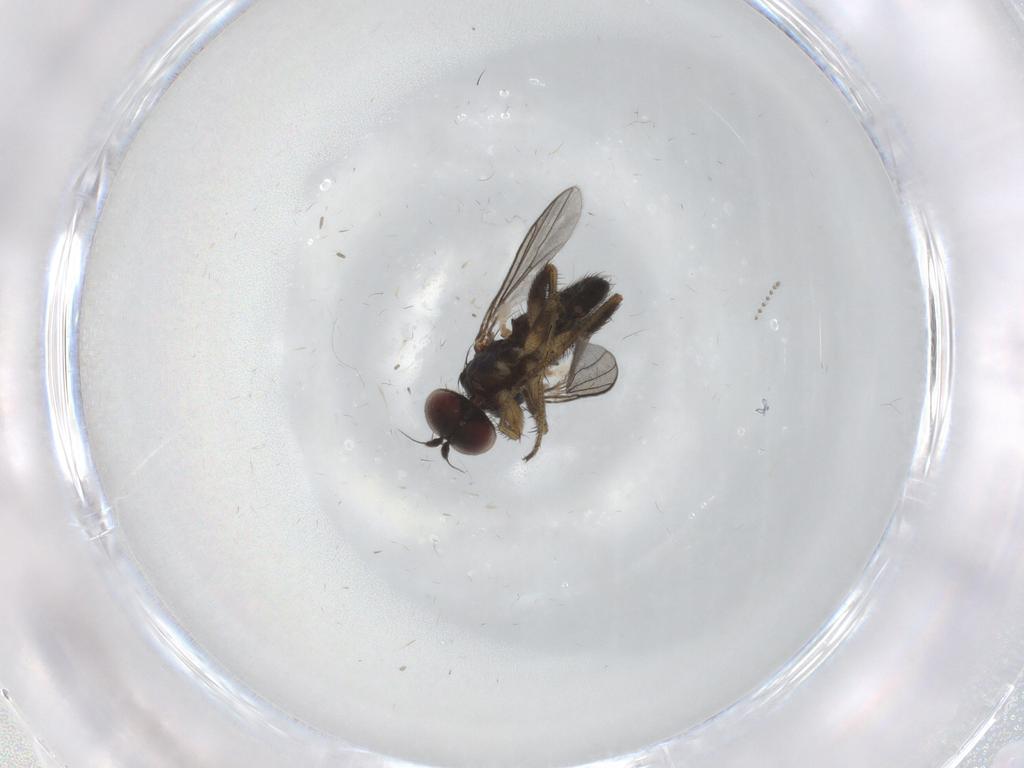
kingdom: Animalia
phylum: Arthropoda
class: Insecta
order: Diptera
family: Dolichopodidae
